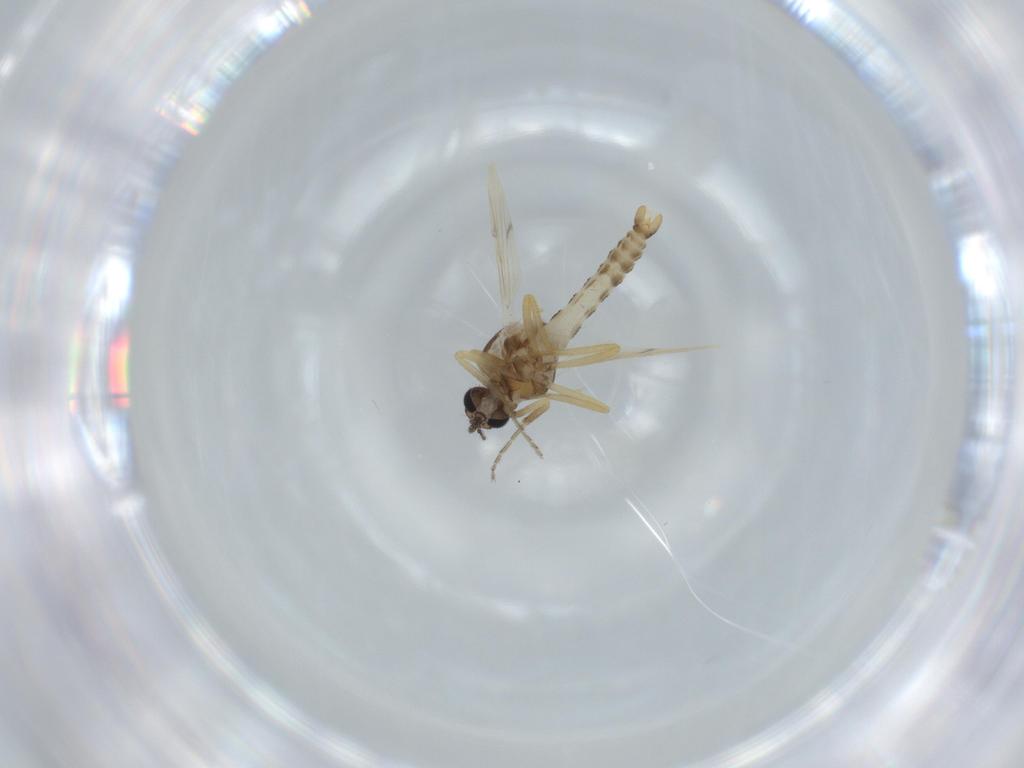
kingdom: Animalia
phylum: Arthropoda
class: Insecta
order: Diptera
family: Ceratopogonidae
